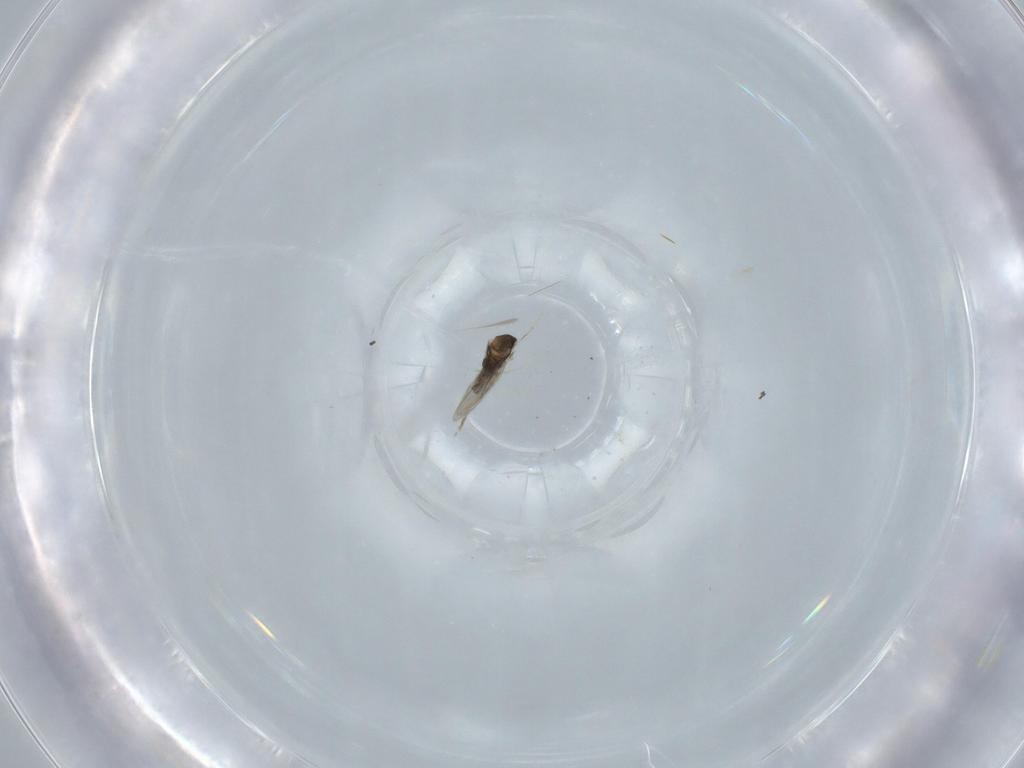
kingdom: Animalia
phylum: Arthropoda
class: Insecta
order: Diptera
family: Cecidomyiidae
